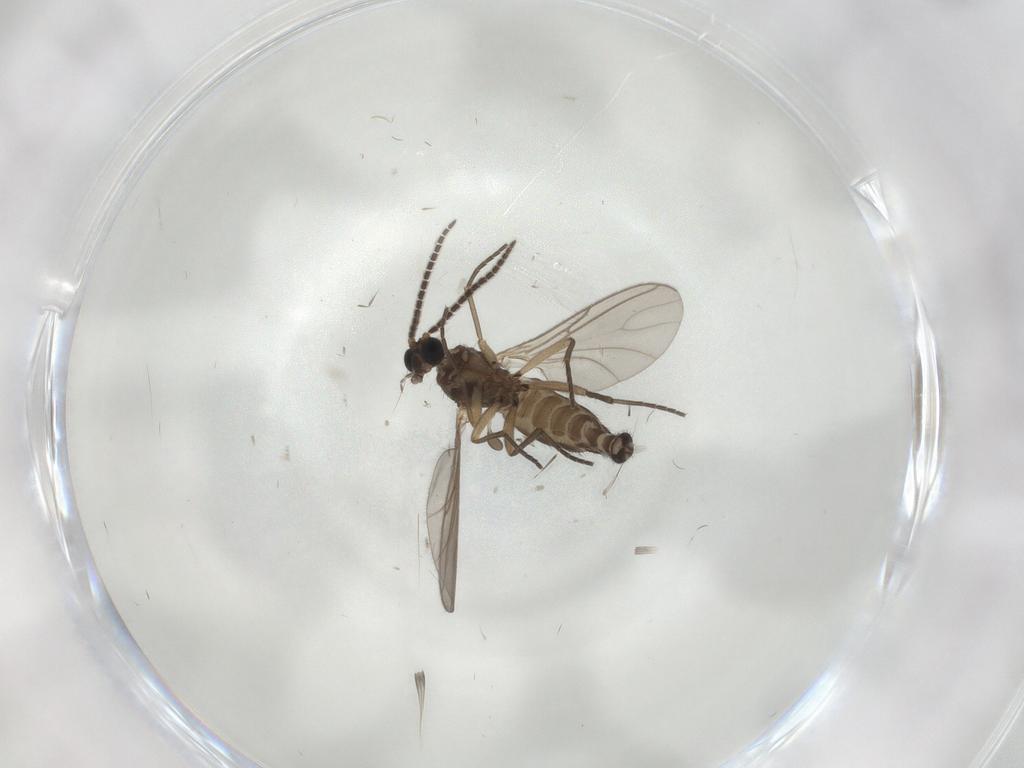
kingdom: Animalia
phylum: Arthropoda
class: Insecta
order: Diptera
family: Sciaridae
